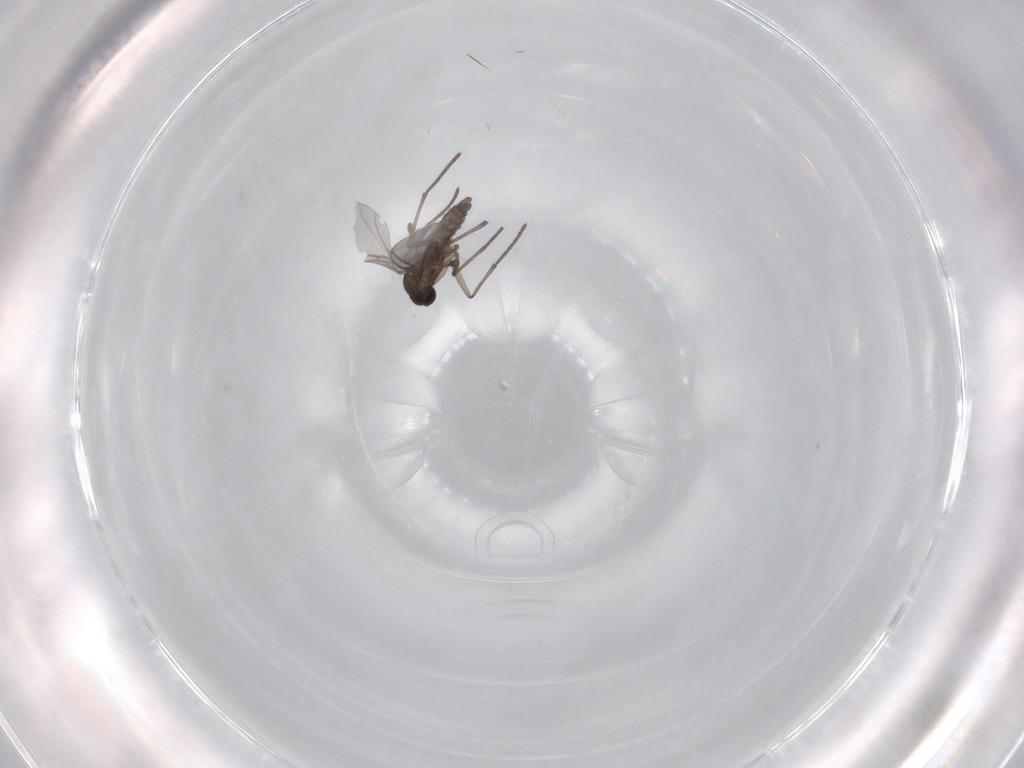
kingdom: Animalia
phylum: Arthropoda
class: Insecta
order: Diptera
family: Sciaridae
